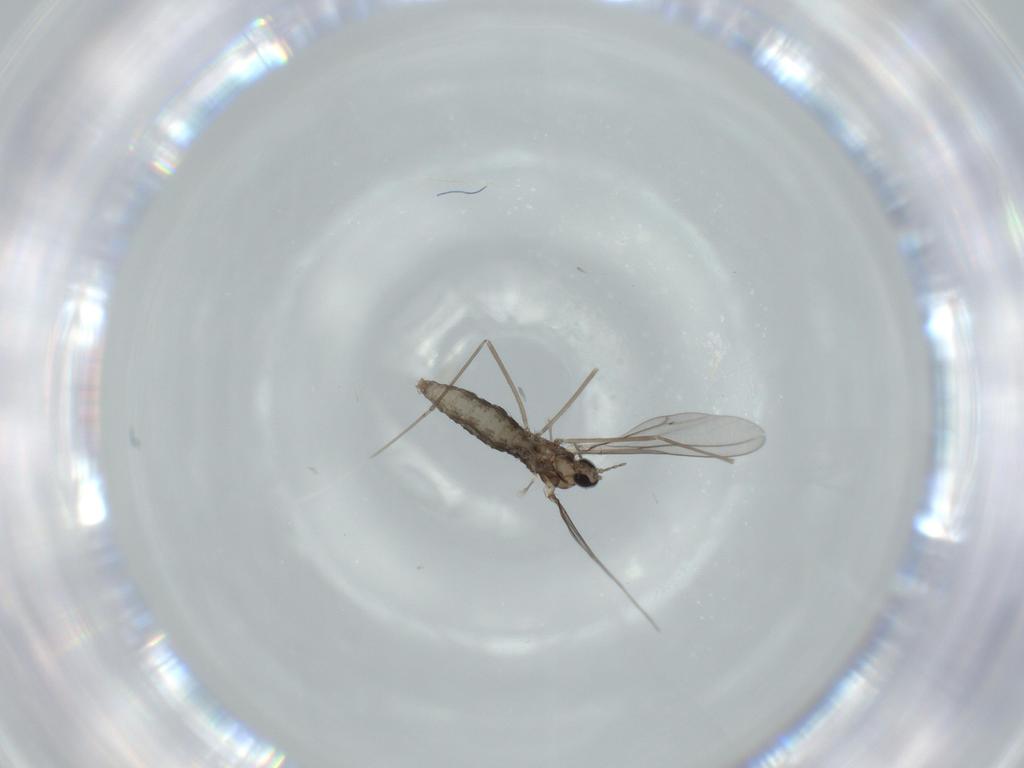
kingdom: Animalia
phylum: Arthropoda
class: Insecta
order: Diptera
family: Cecidomyiidae
